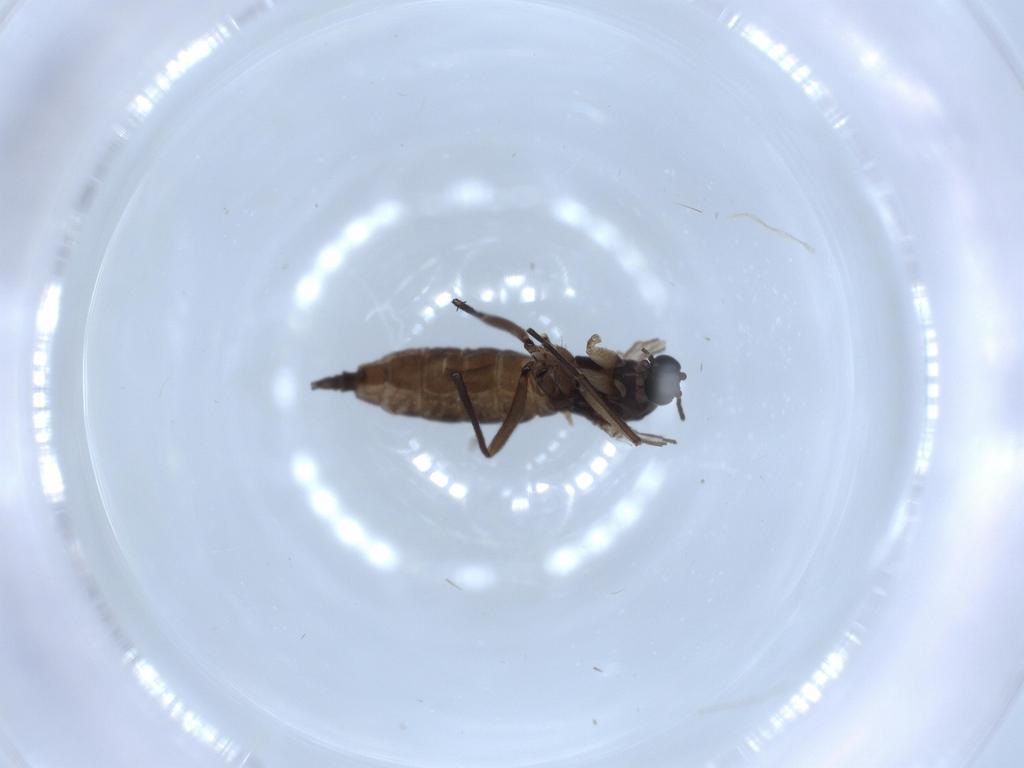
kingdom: Animalia
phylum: Arthropoda
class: Insecta
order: Diptera
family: Sciaridae
